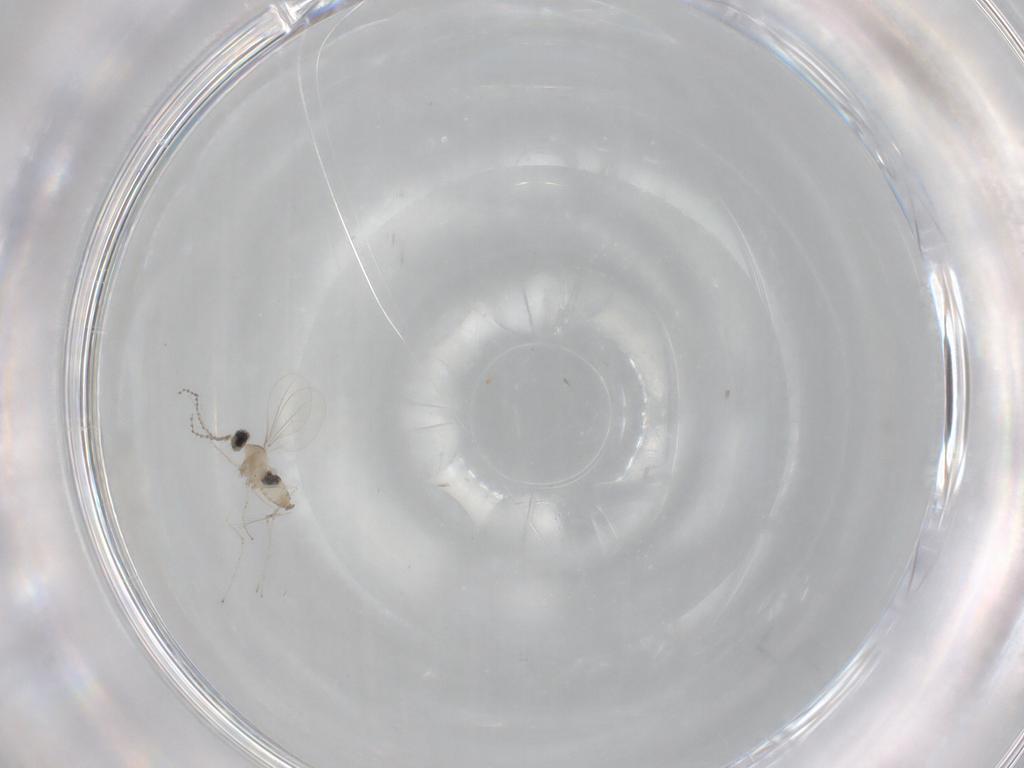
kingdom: Animalia
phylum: Arthropoda
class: Insecta
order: Diptera
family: Cecidomyiidae
